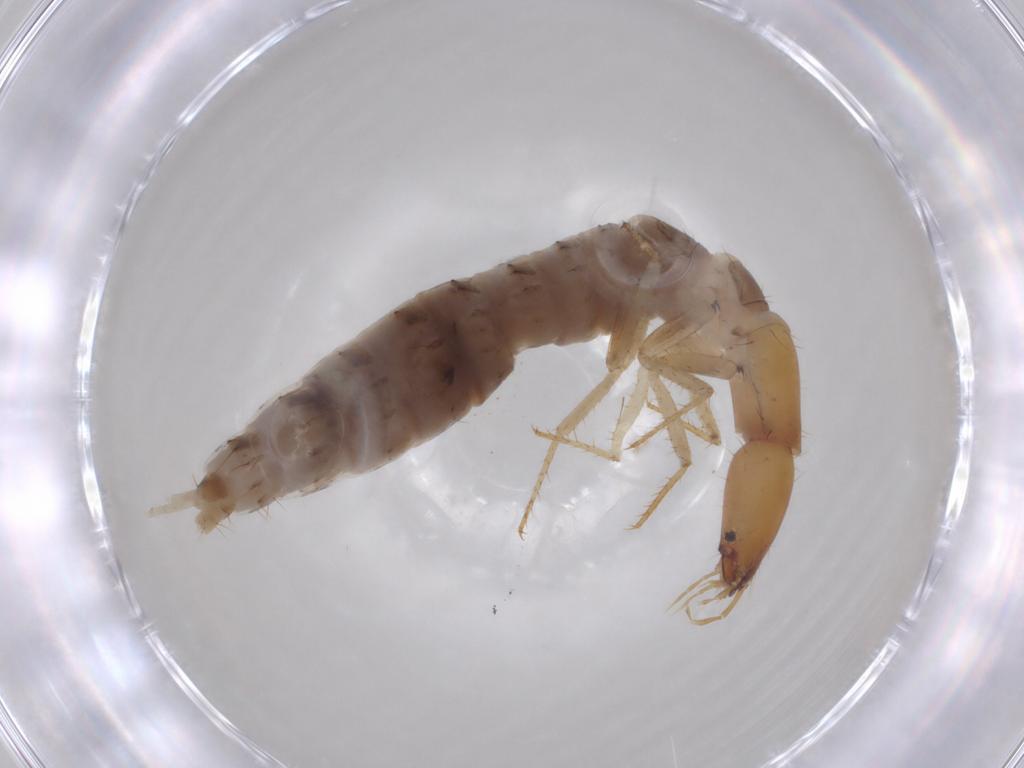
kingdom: Animalia
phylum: Arthropoda
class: Insecta
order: Coleoptera
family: Staphylinidae
